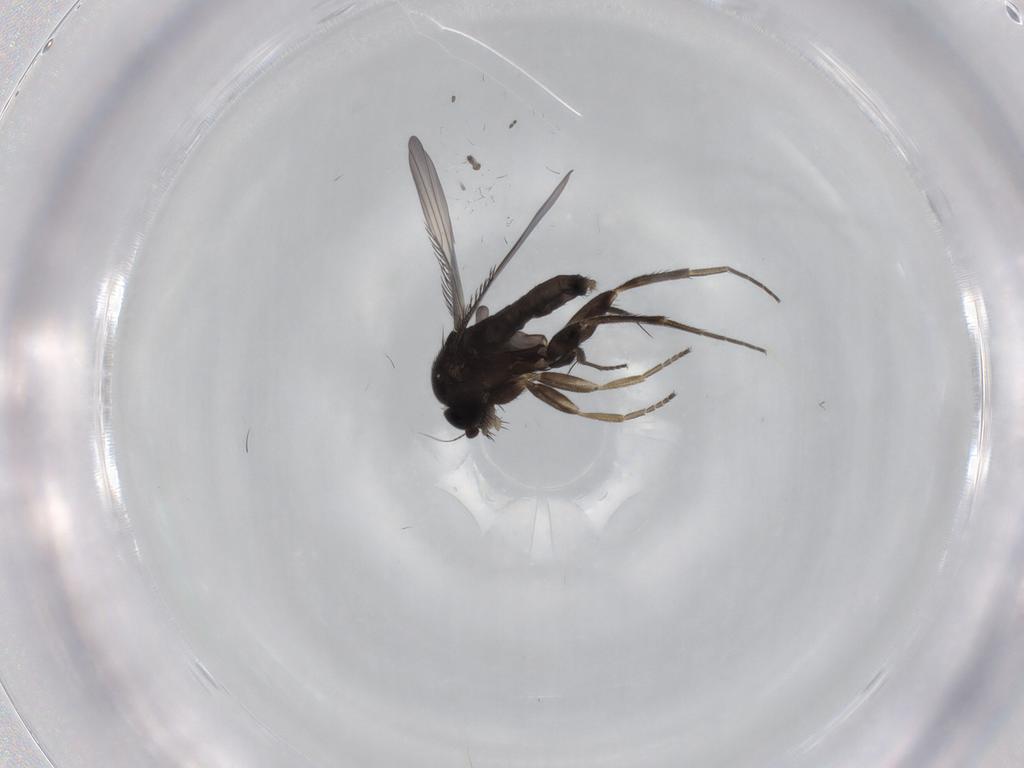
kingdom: Animalia
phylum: Arthropoda
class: Insecta
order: Diptera
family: Phoridae
